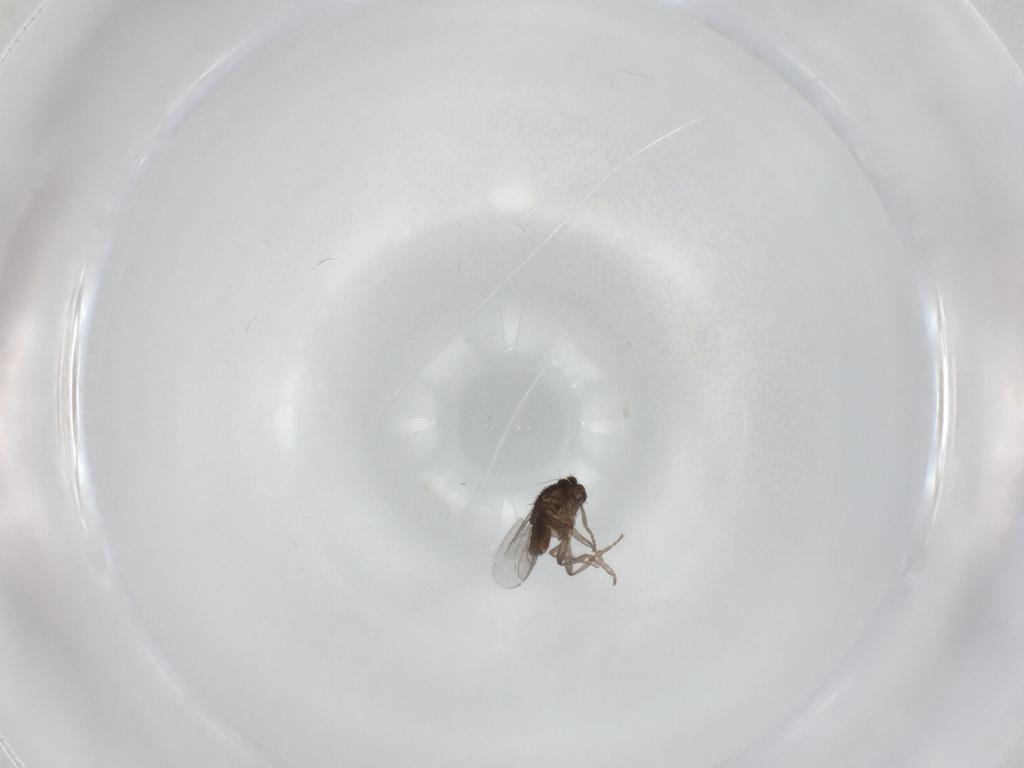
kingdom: Animalia
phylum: Arthropoda
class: Insecta
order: Diptera
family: Sphaeroceridae
